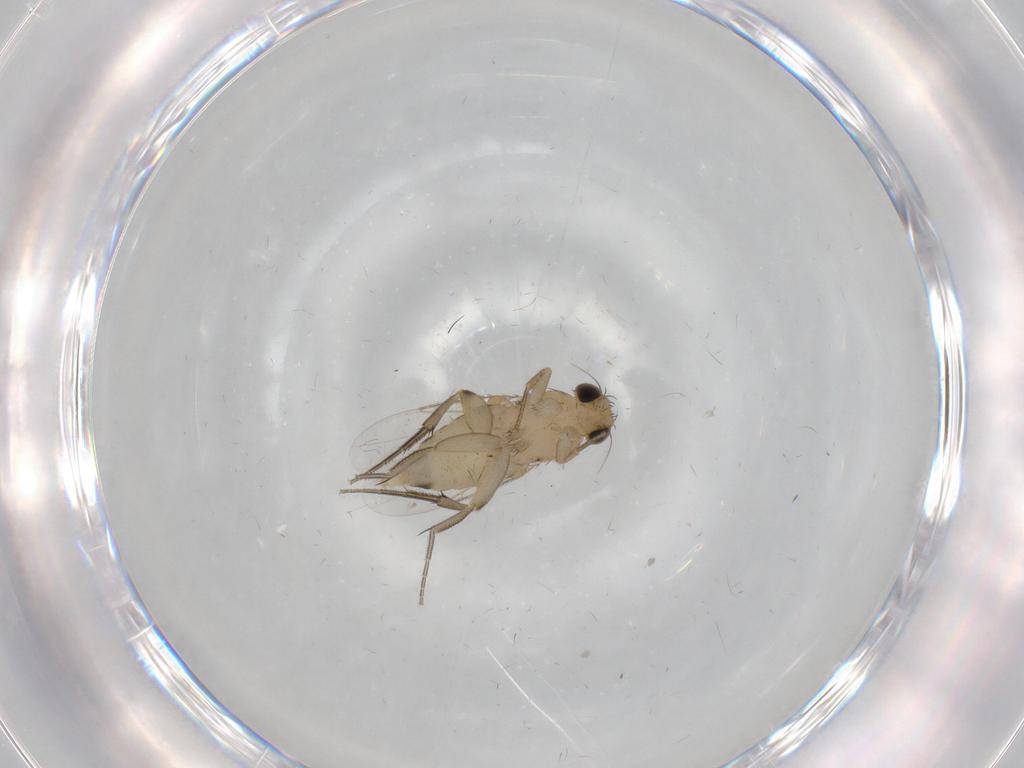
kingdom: Animalia
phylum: Arthropoda
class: Insecta
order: Diptera
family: Phoridae
